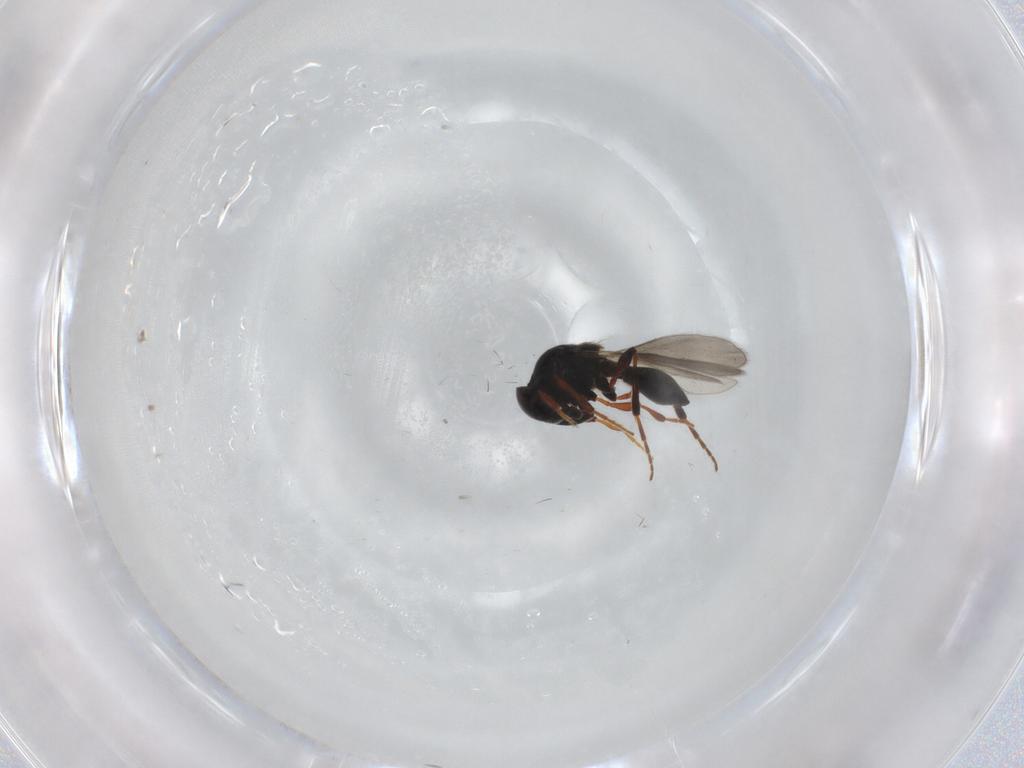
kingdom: Animalia
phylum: Arthropoda
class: Insecta
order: Hymenoptera
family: Platygastridae
